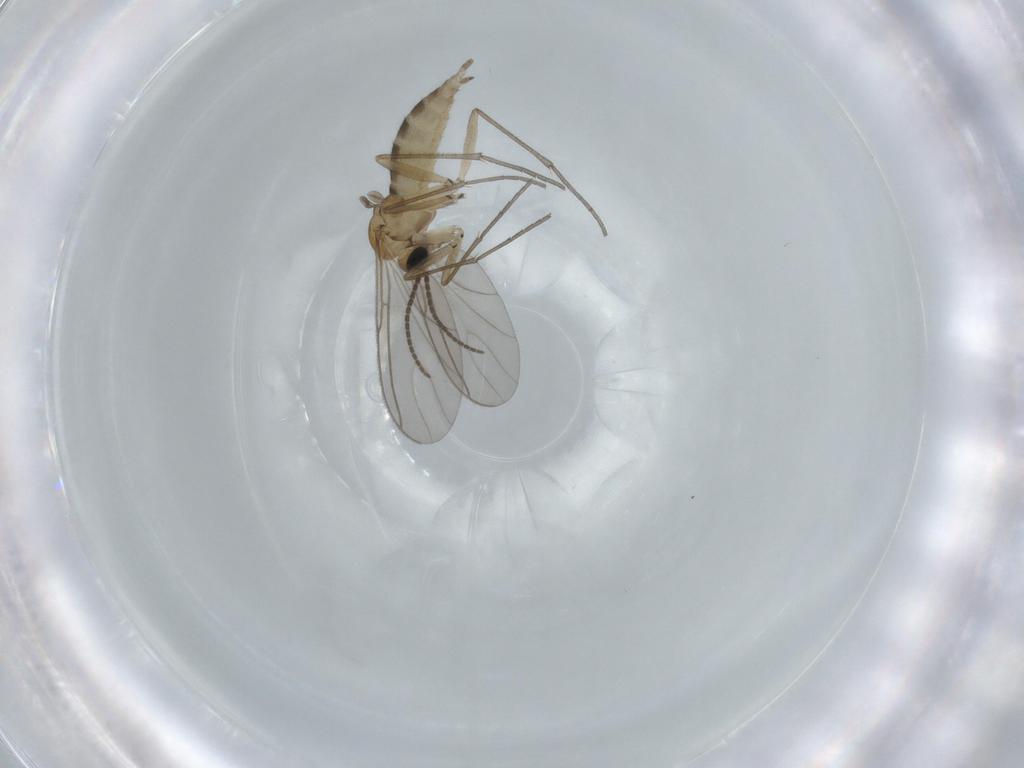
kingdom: Animalia
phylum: Arthropoda
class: Insecta
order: Diptera
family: Sciaridae
